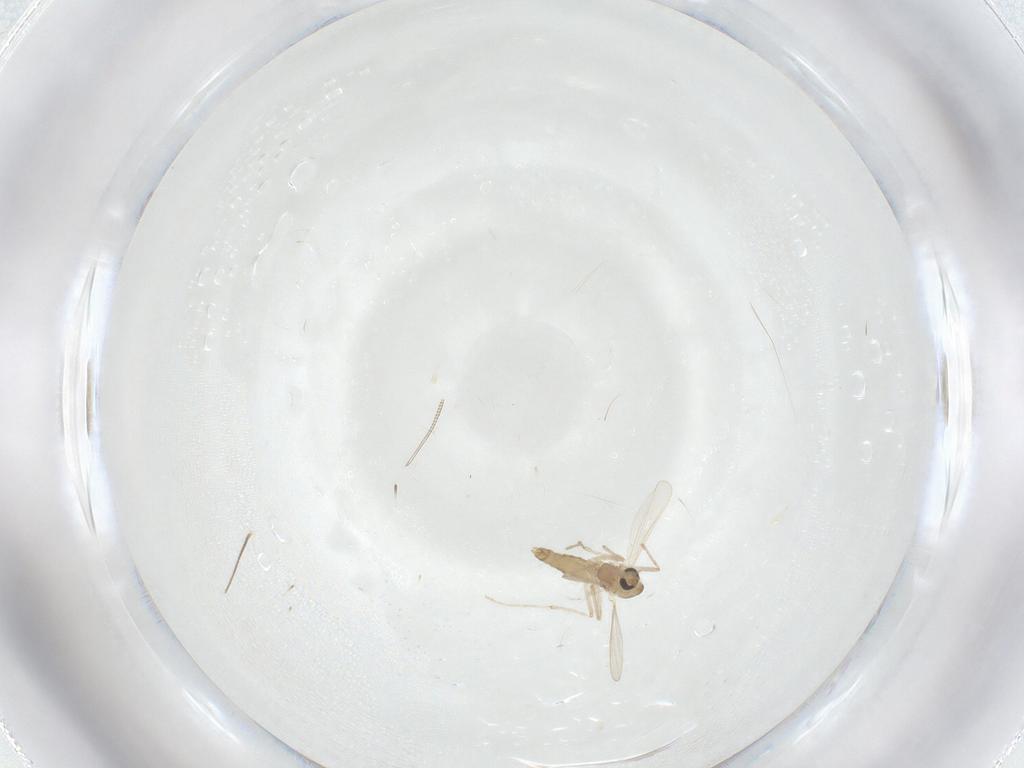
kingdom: Animalia
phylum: Arthropoda
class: Insecta
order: Diptera
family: Chironomidae
